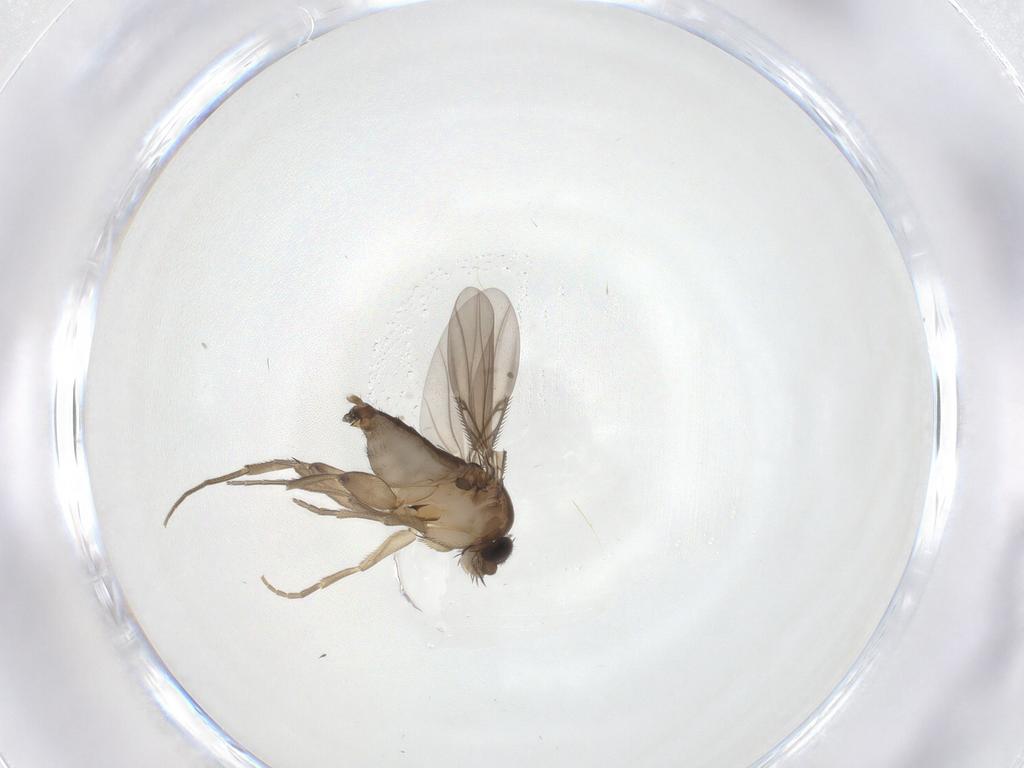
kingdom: Animalia
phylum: Arthropoda
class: Insecta
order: Diptera
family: Phoridae
